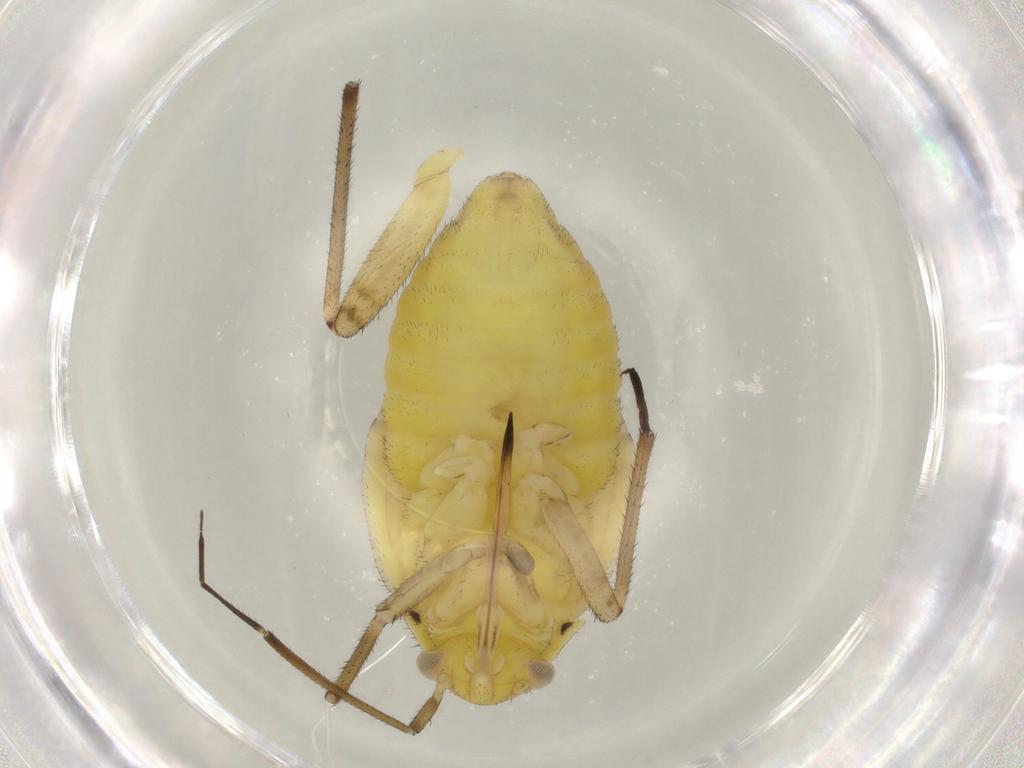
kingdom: Animalia
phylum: Arthropoda
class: Insecta
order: Hemiptera
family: Miridae
